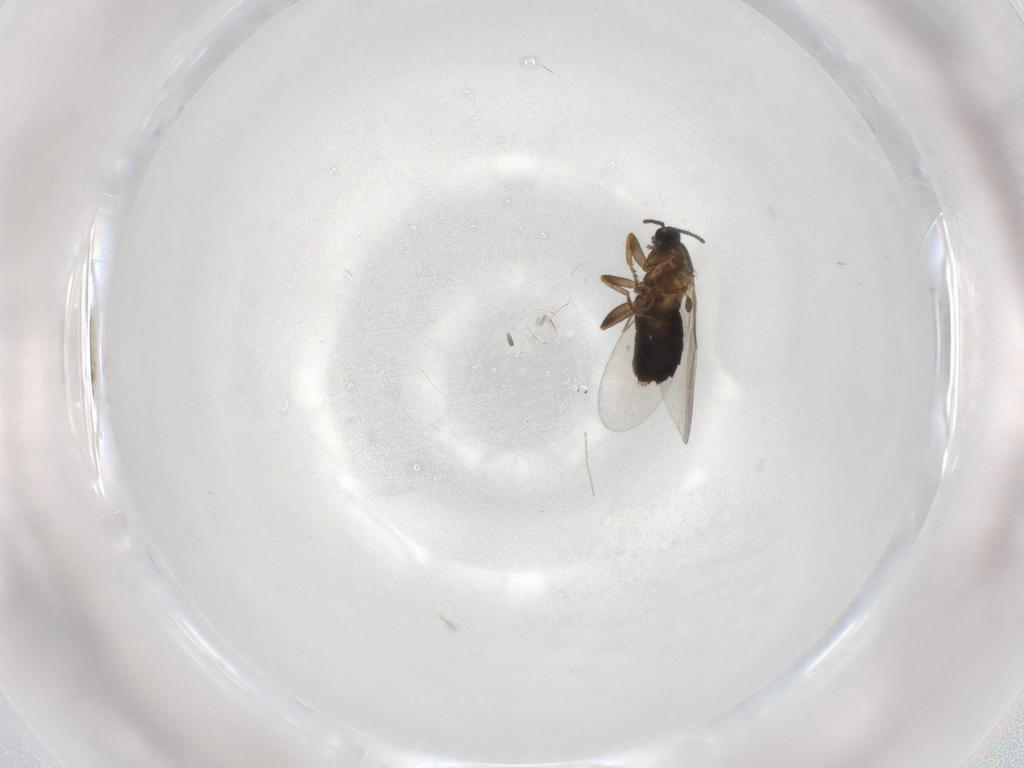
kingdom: Animalia
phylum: Arthropoda
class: Insecta
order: Diptera
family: Scatopsidae
